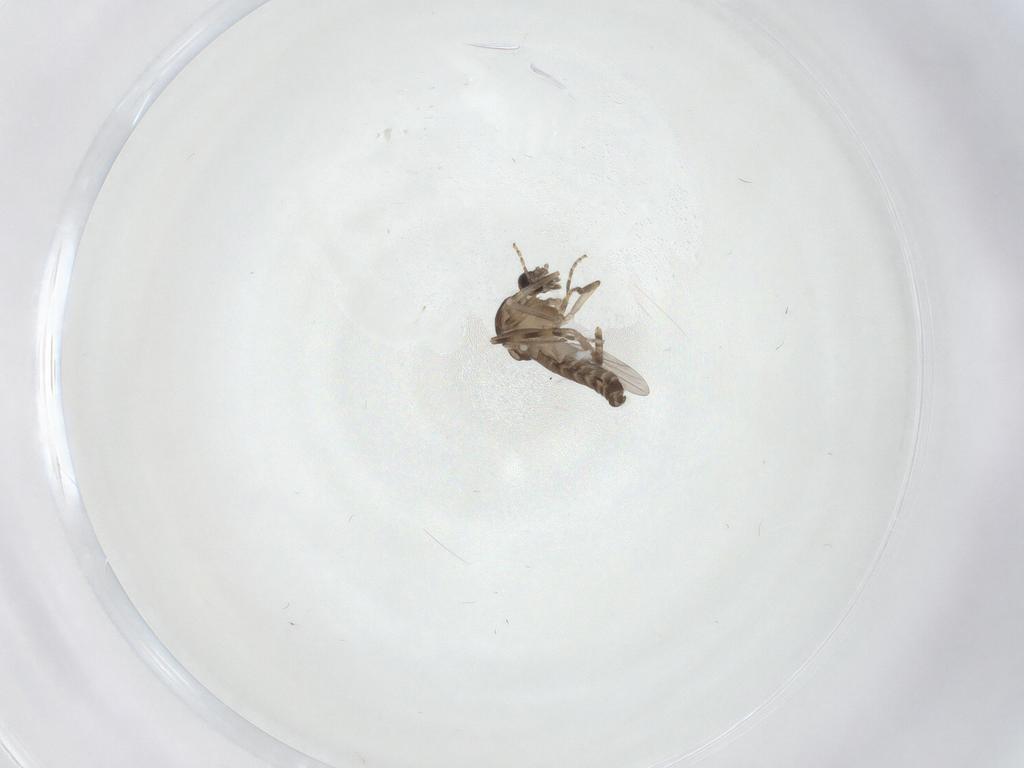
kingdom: Animalia
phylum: Arthropoda
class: Insecta
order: Diptera
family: Ceratopogonidae
